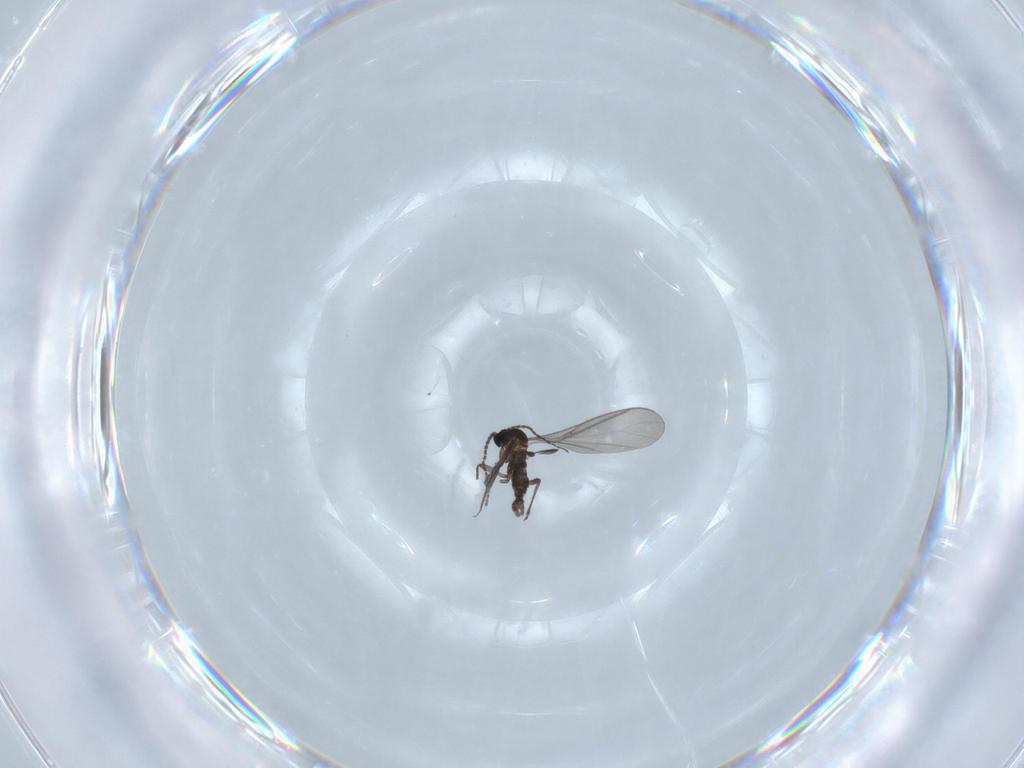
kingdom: Animalia
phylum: Arthropoda
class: Insecta
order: Diptera
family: Sciaridae
